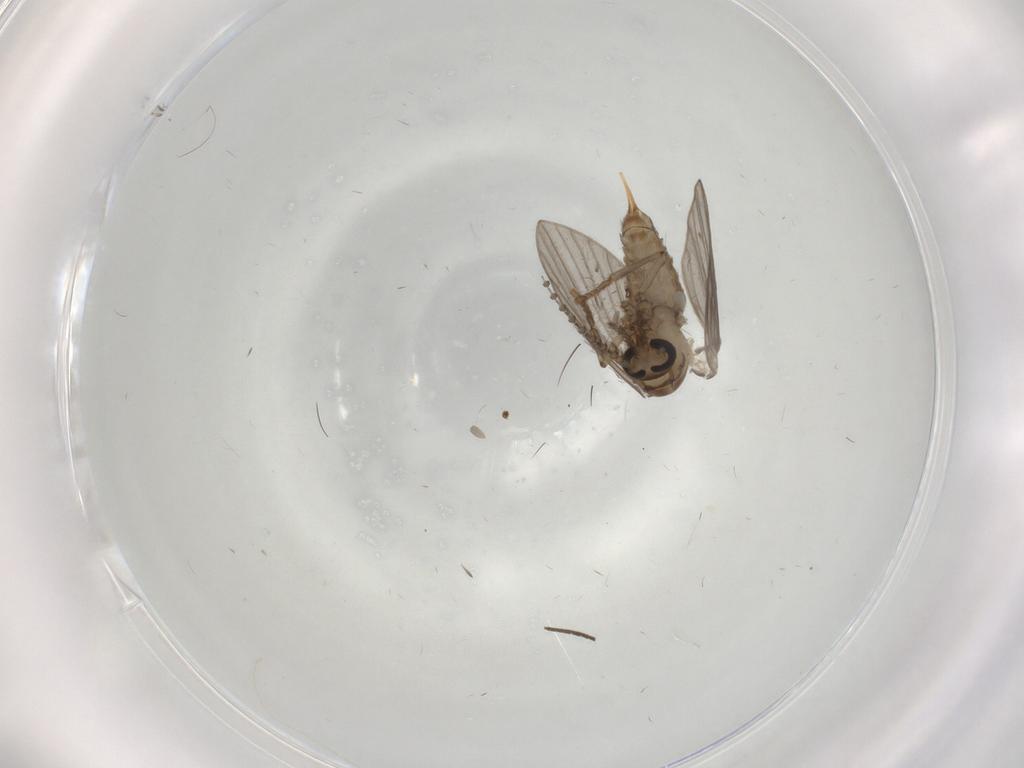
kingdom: Animalia
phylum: Arthropoda
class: Insecta
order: Diptera
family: Psychodidae
